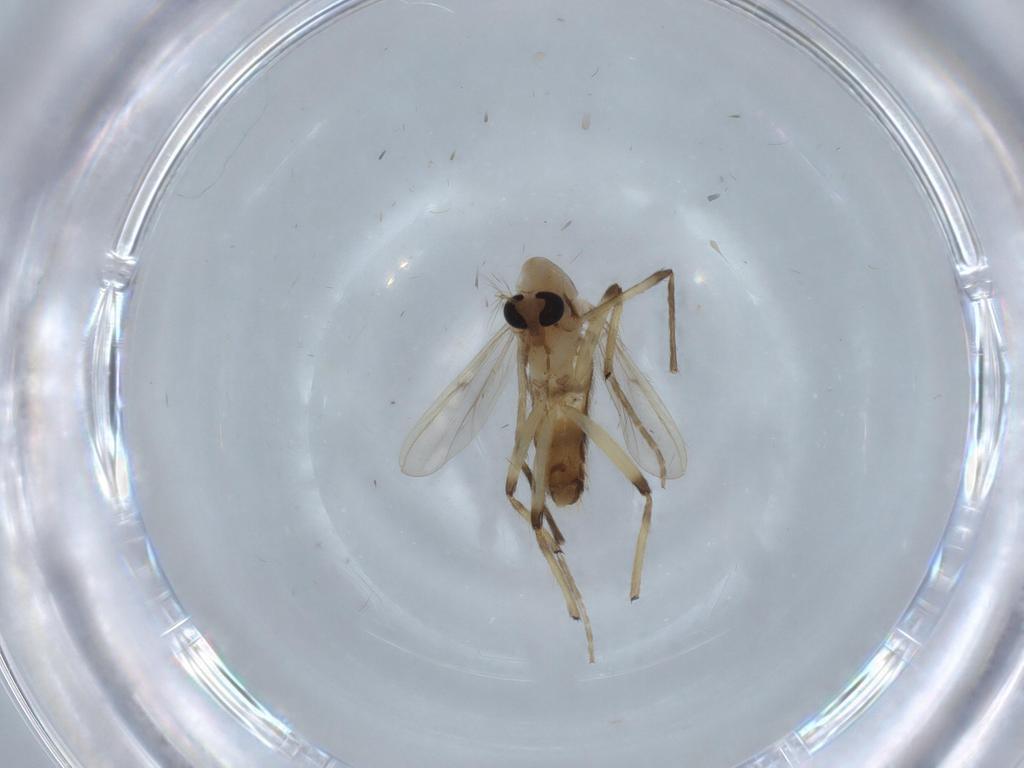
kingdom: Animalia
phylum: Arthropoda
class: Insecta
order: Diptera
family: Chironomidae
